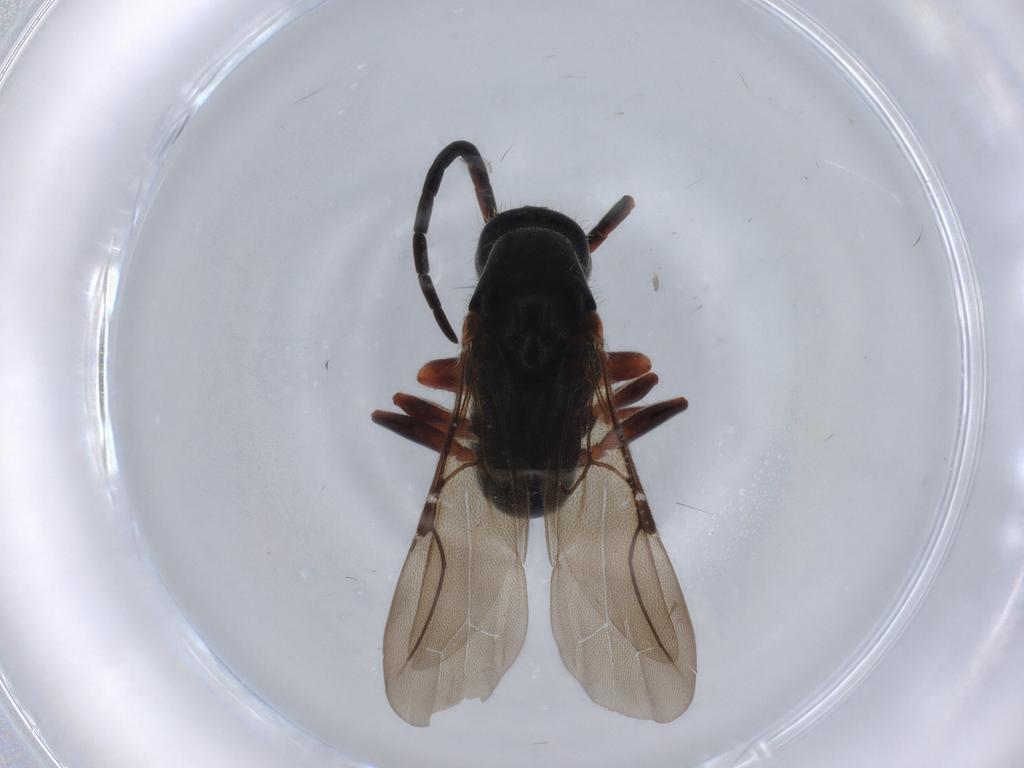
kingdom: Animalia
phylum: Arthropoda
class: Insecta
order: Hymenoptera
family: Bethylidae
